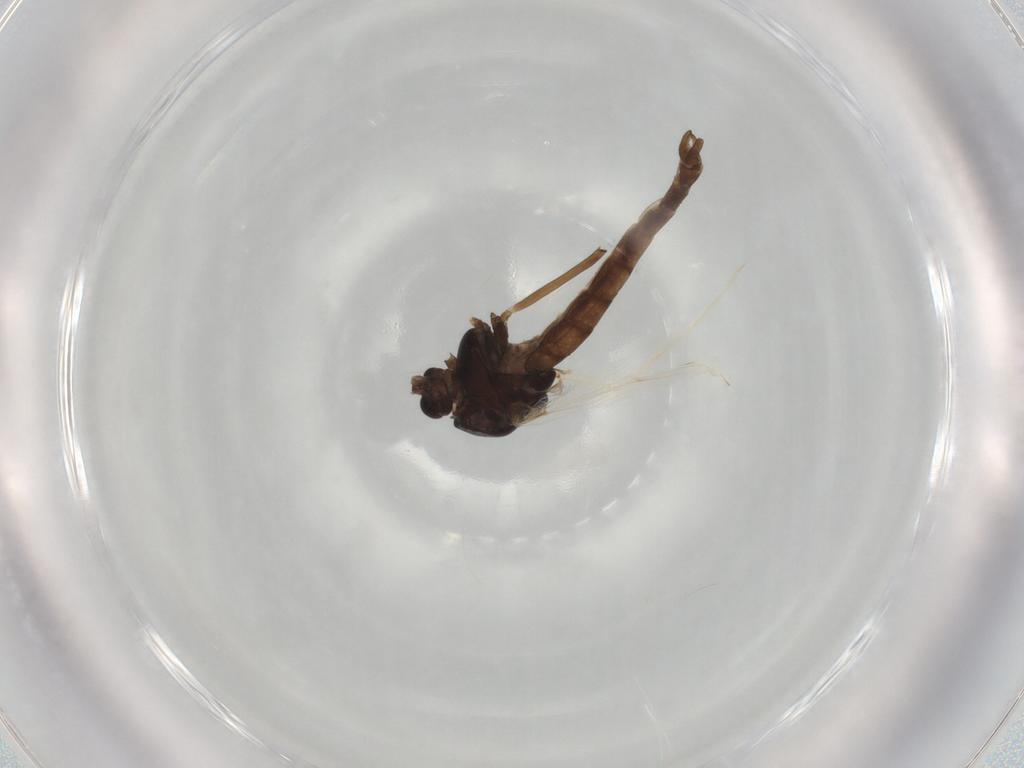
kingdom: Animalia
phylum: Arthropoda
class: Insecta
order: Diptera
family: Chironomidae
